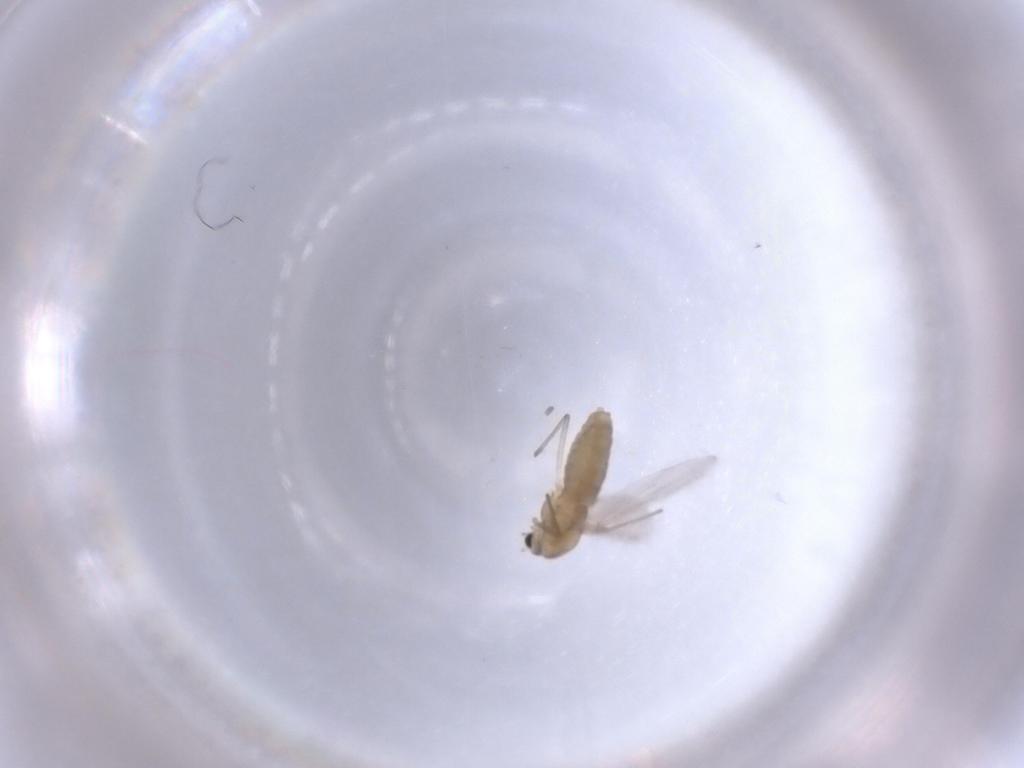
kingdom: Animalia
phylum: Arthropoda
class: Insecta
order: Diptera
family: Chironomidae
